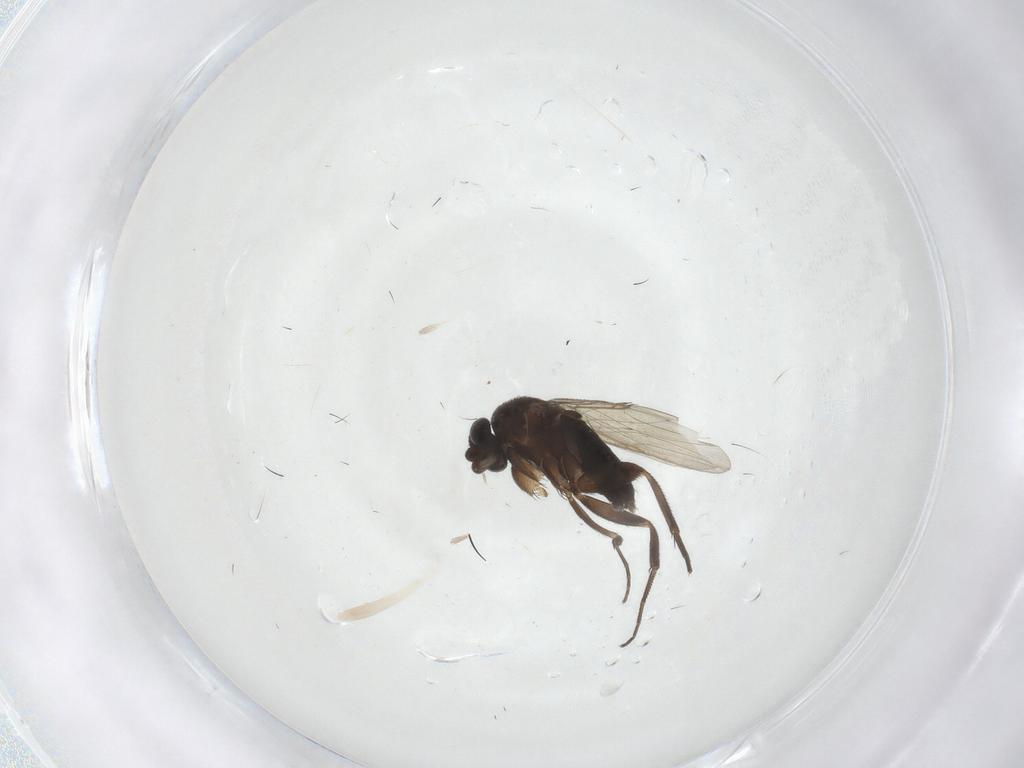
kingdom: Animalia
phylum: Arthropoda
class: Insecta
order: Diptera
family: Phoridae
